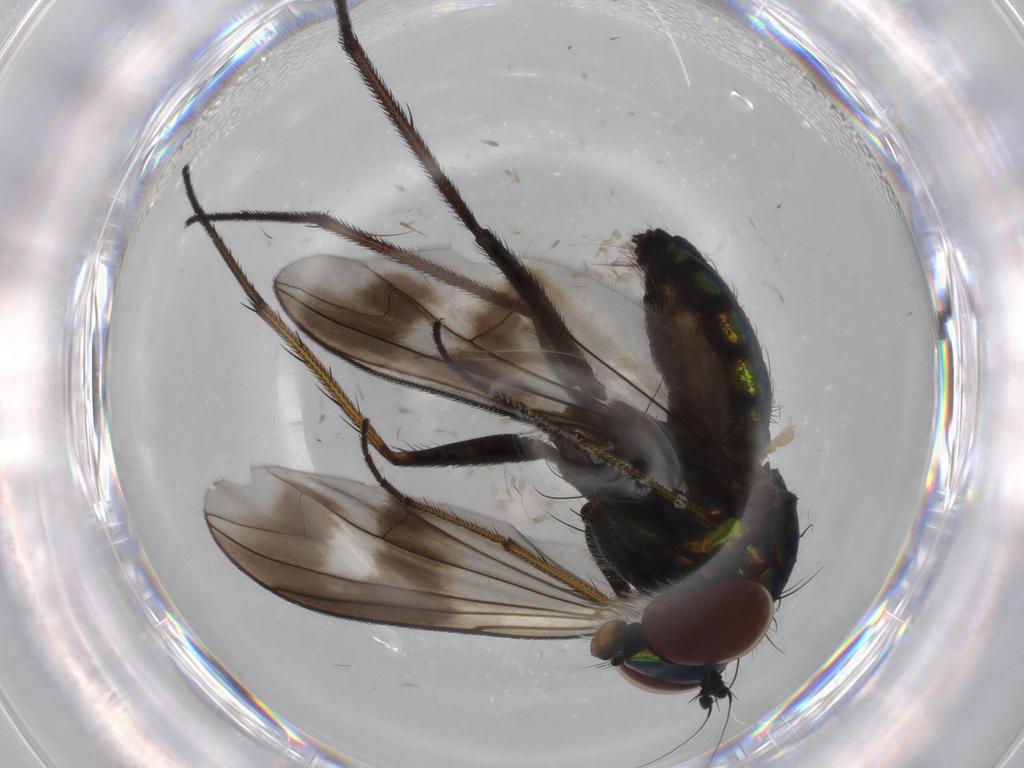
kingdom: Animalia
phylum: Arthropoda
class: Insecta
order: Diptera
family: Dolichopodidae
